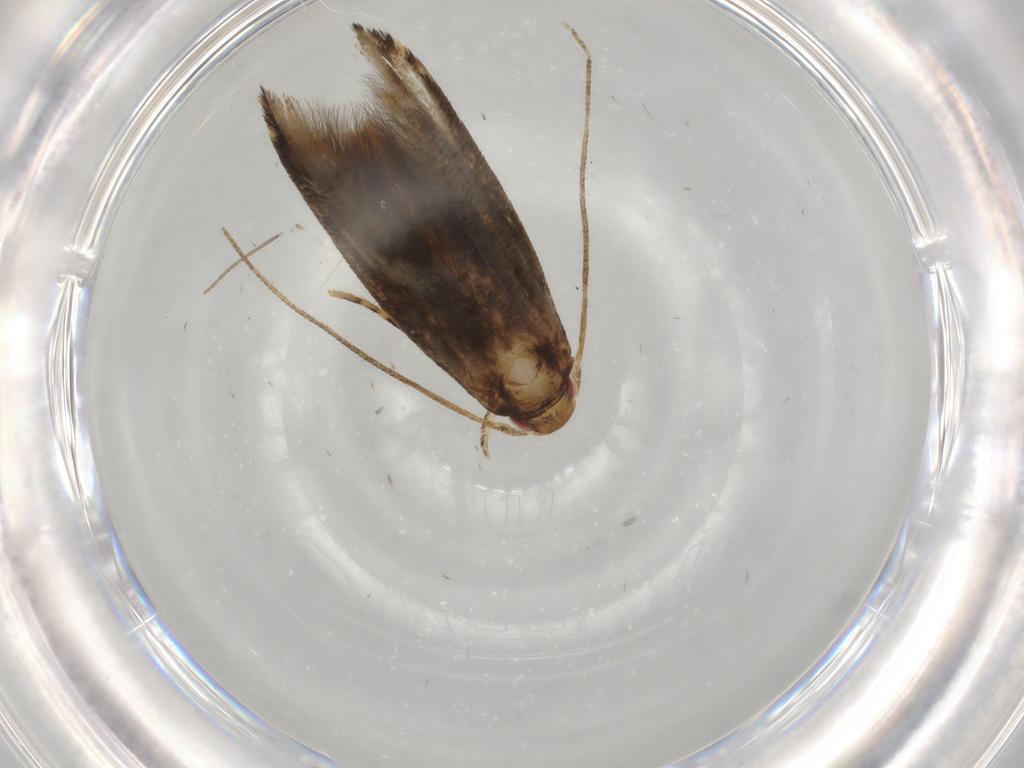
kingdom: Animalia
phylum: Arthropoda
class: Insecta
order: Lepidoptera
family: Momphidae
